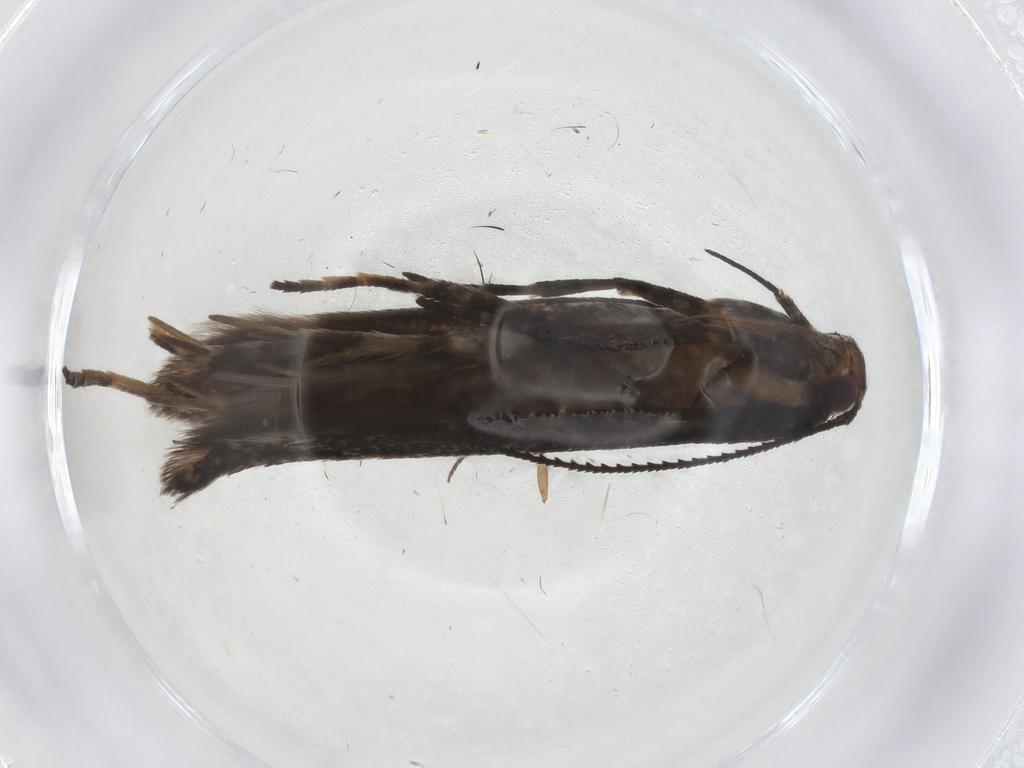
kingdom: Animalia
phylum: Arthropoda
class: Insecta
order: Lepidoptera
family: Gelechiidae
